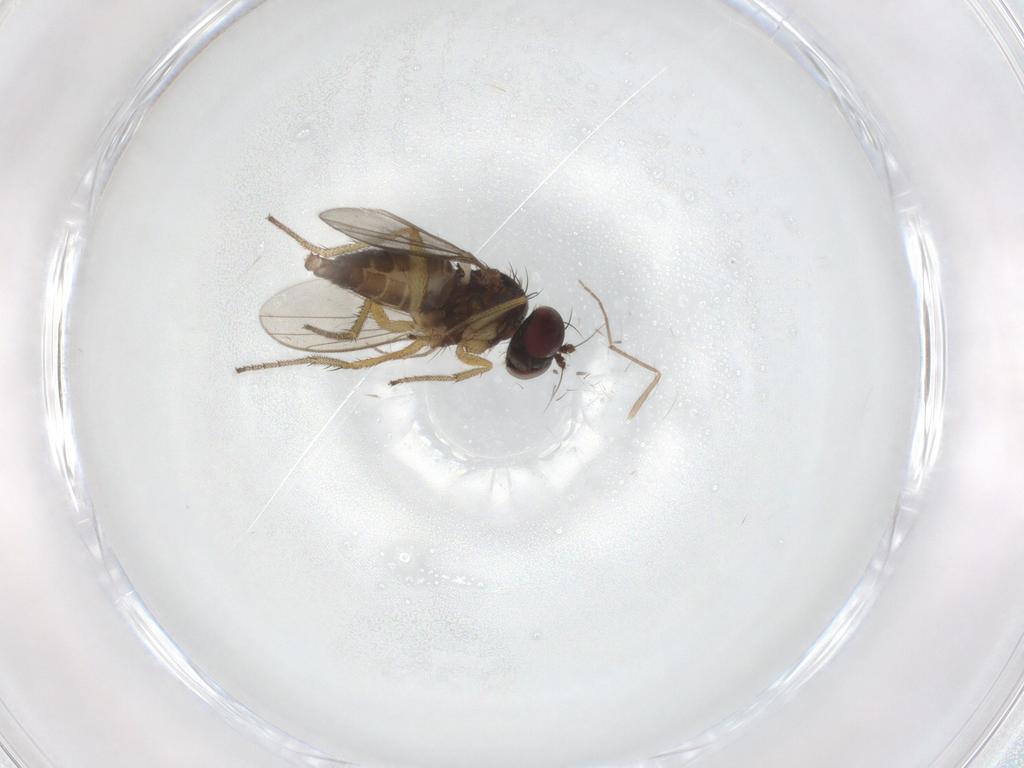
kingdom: Animalia
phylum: Arthropoda
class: Insecta
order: Diptera
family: Dolichopodidae
